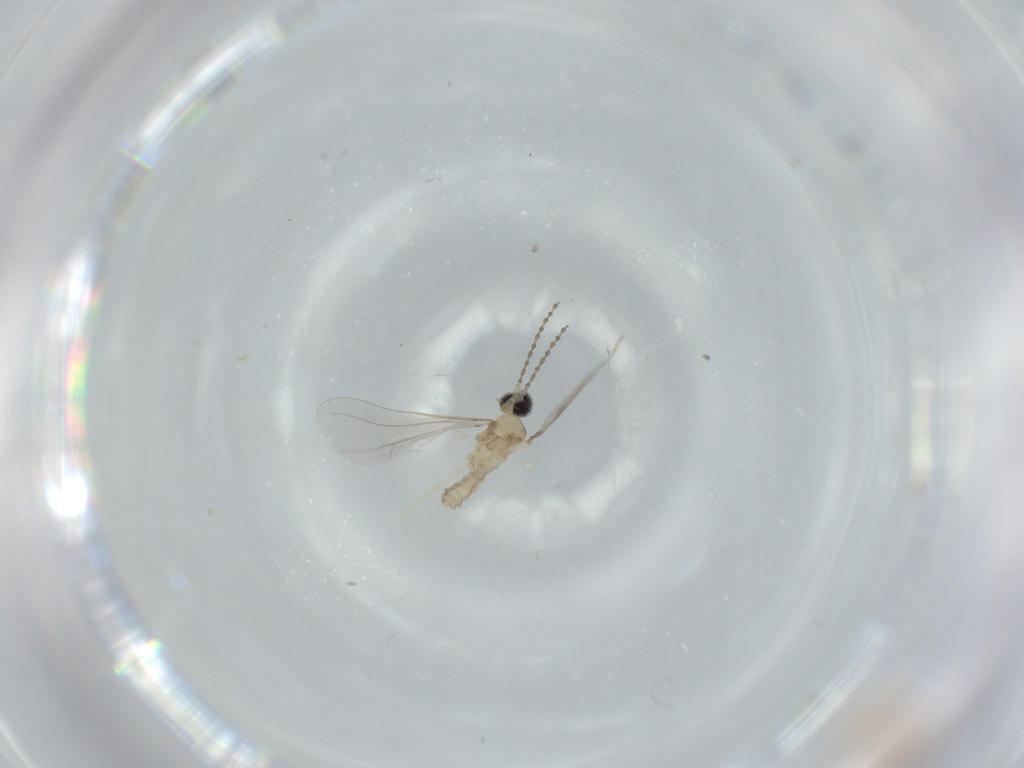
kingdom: Animalia
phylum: Arthropoda
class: Insecta
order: Diptera
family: Cecidomyiidae
